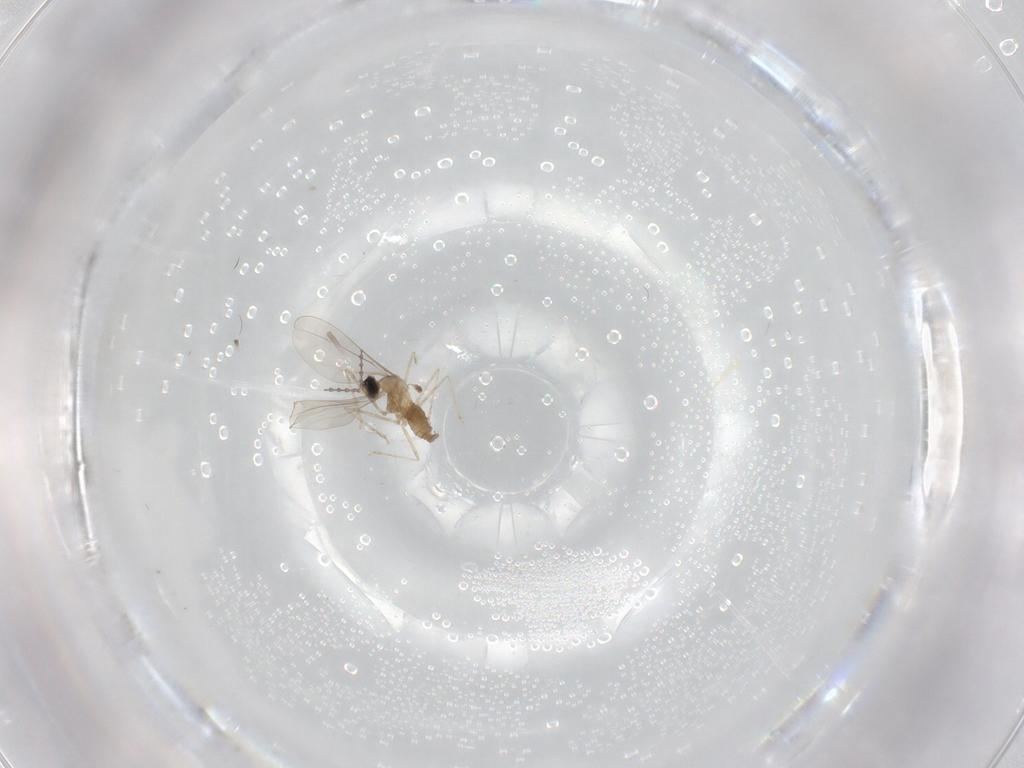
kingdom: Animalia
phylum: Arthropoda
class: Insecta
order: Diptera
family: Cecidomyiidae
